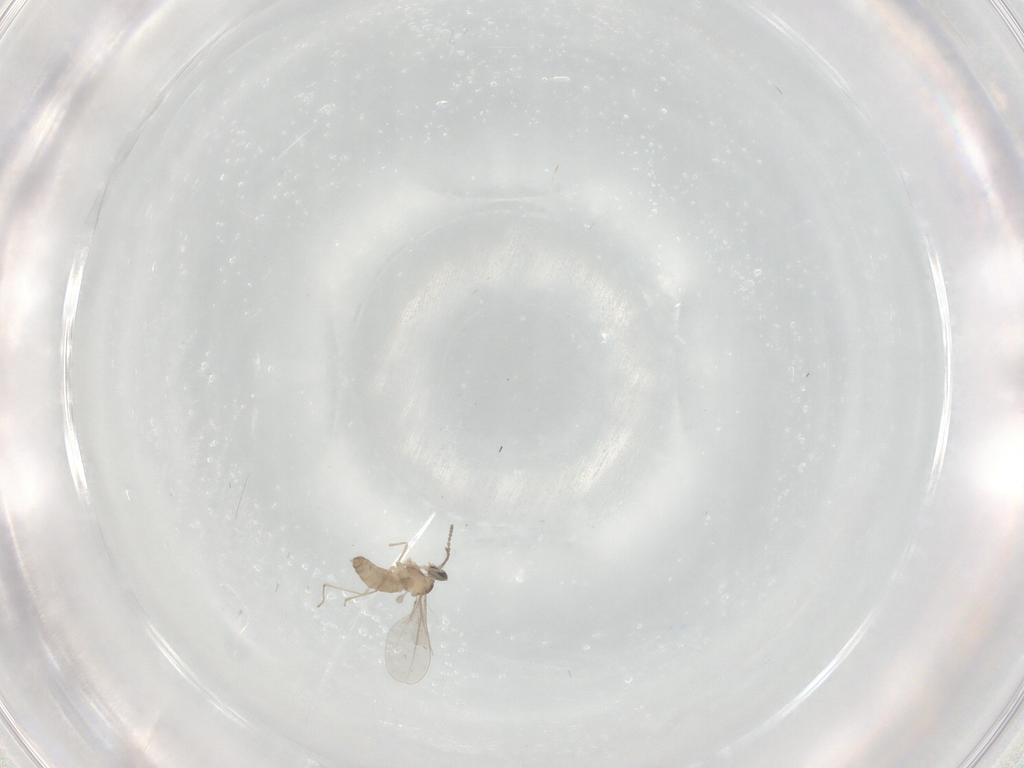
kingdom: Animalia
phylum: Arthropoda
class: Insecta
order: Diptera
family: Cecidomyiidae
